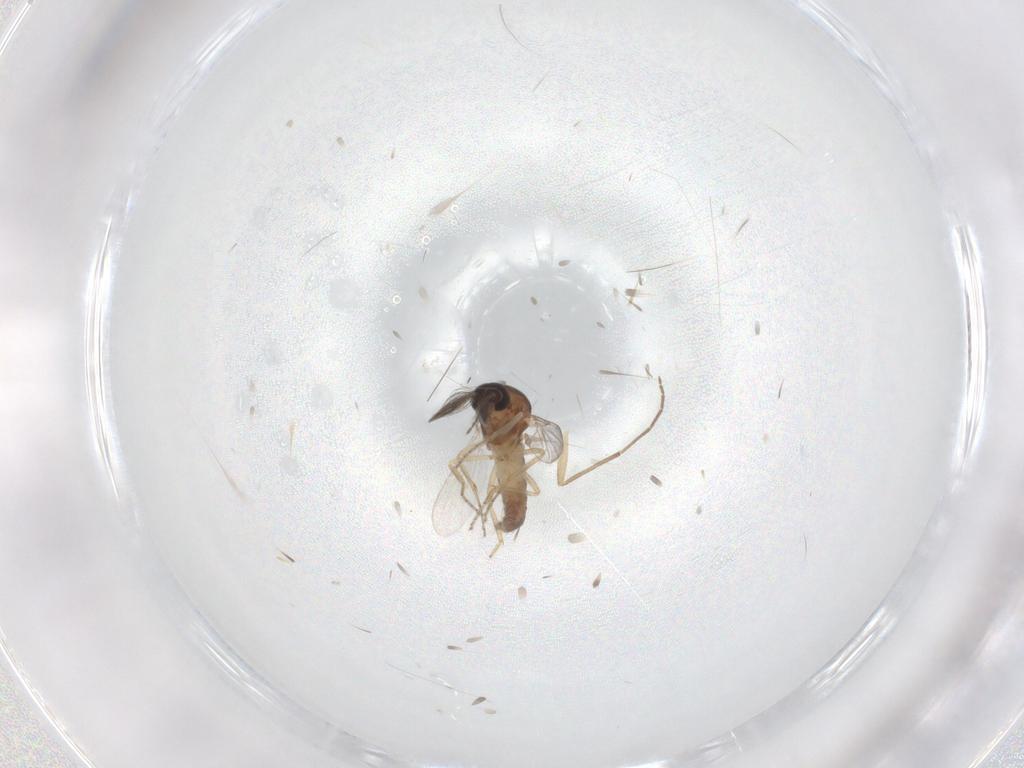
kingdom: Animalia
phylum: Arthropoda
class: Insecta
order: Diptera
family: Ceratopogonidae
